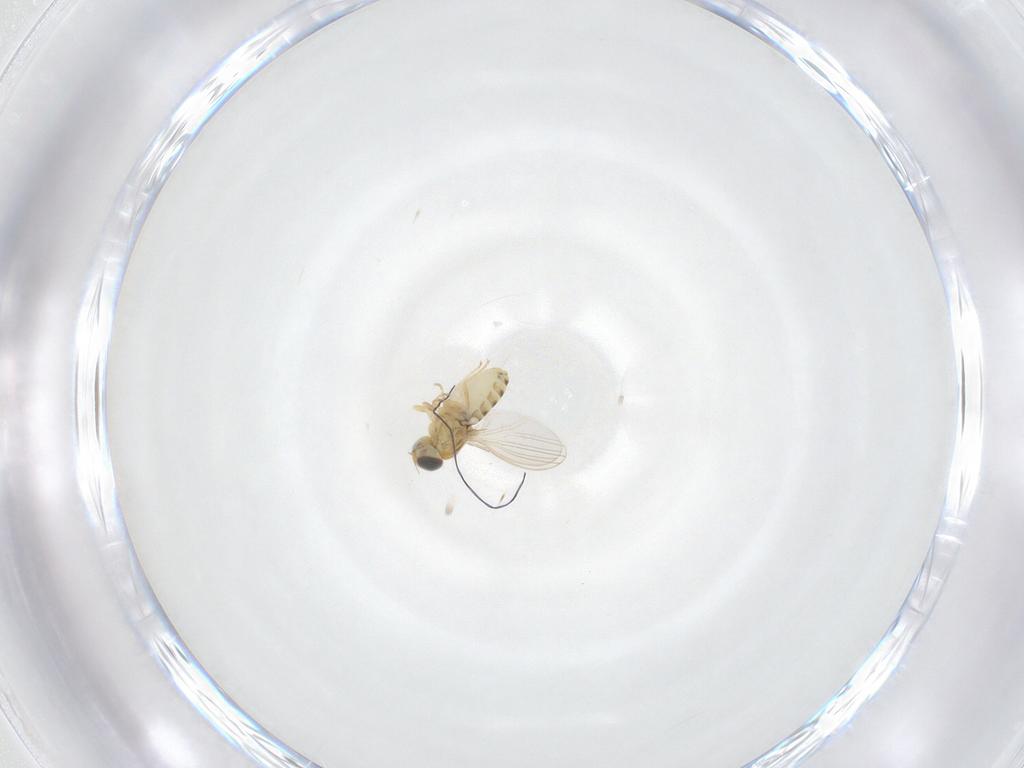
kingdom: Animalia
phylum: Arthropoda
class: Insecta
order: Diptera
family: Chyromyidae
